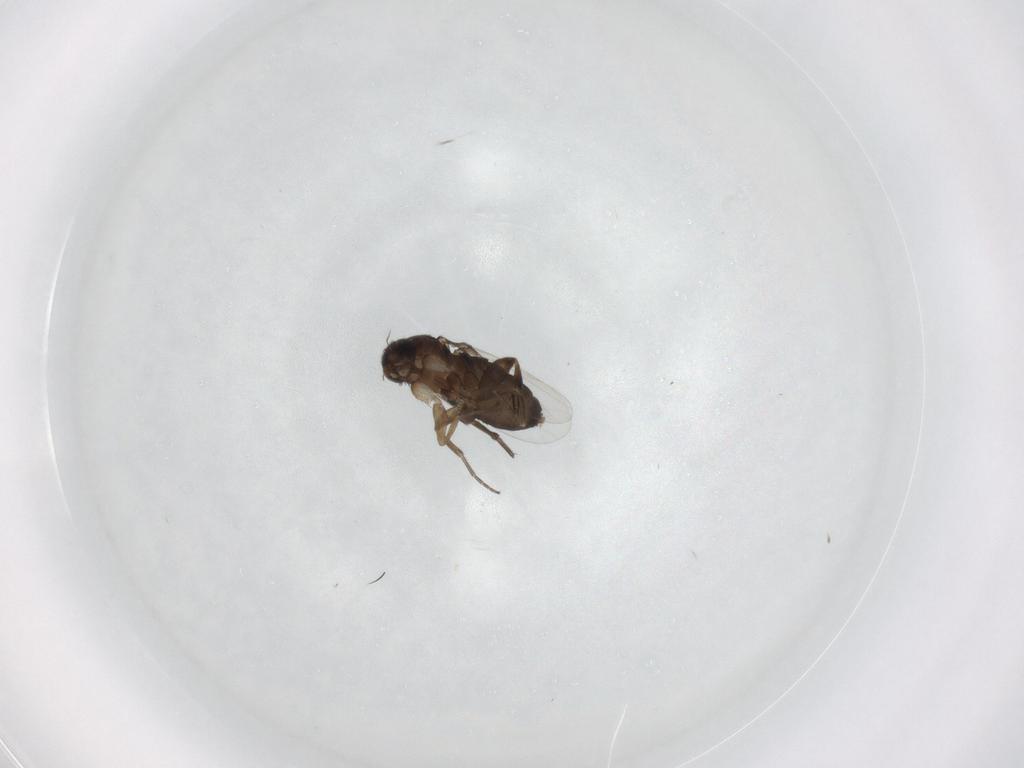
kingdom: Animalia
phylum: Arthropoda
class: Insecta
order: Diptera
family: Phoridae
